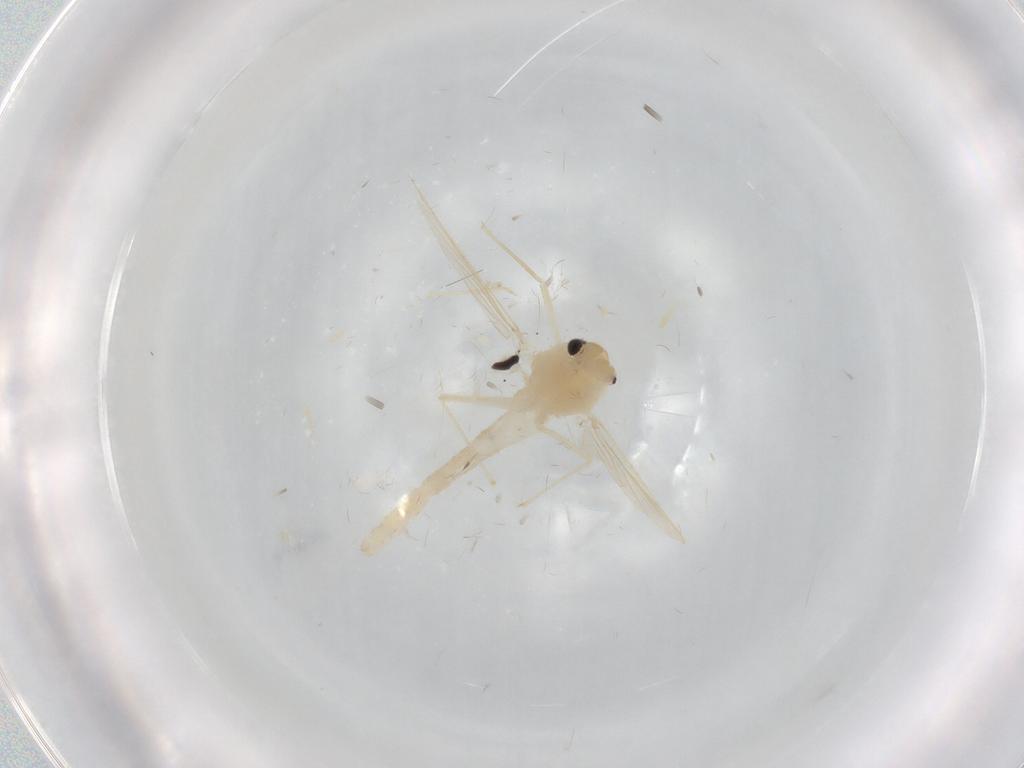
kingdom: Animalia
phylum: Arthropoda
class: Insecta
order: Diptera
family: Chironomidae
